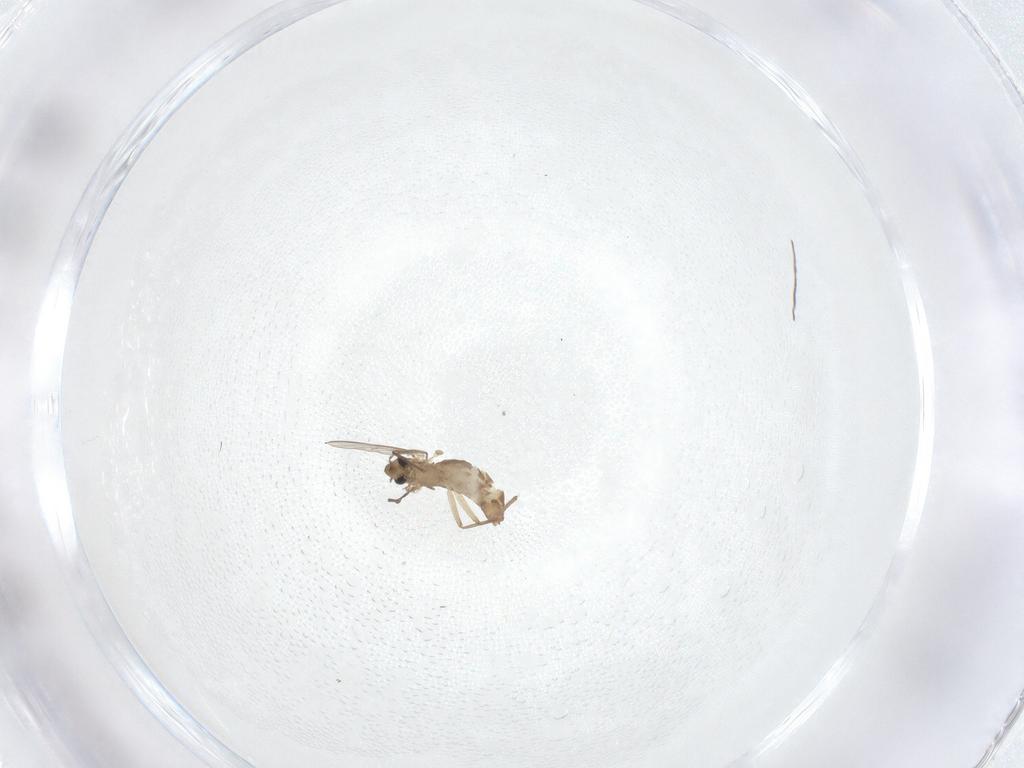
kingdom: Animalia
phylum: Arthropoda
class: Insecta
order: Diptera
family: Chironomidae
